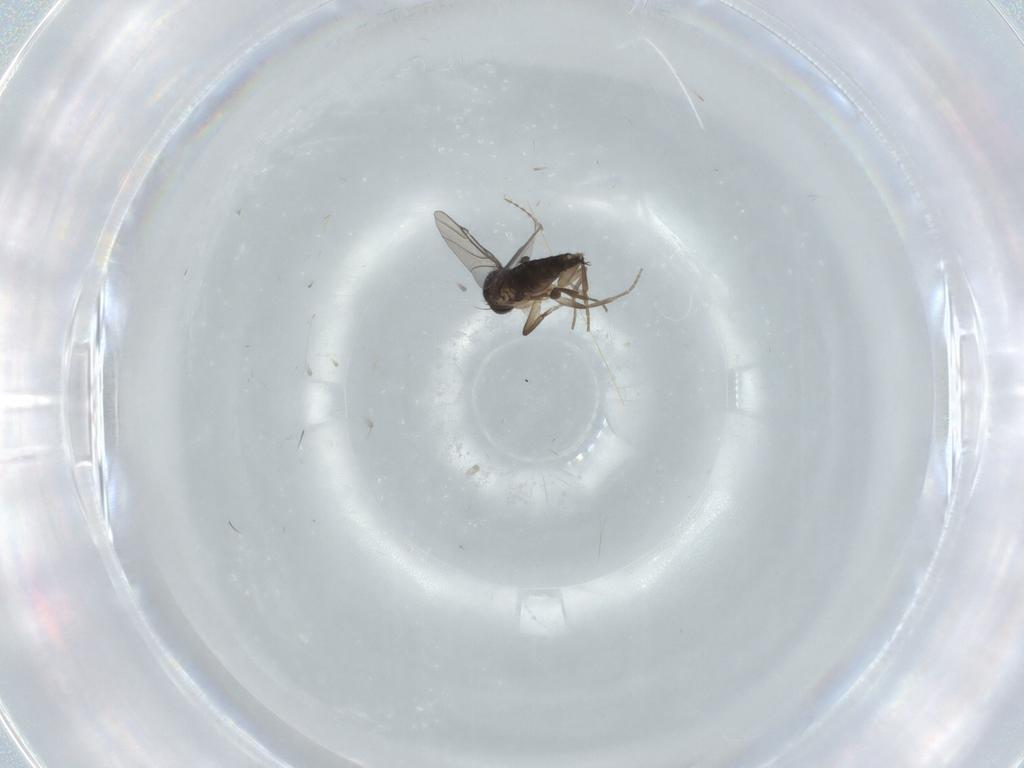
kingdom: Animalia
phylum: Arthropoda
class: Insecta
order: Diptera
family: Phoridae
